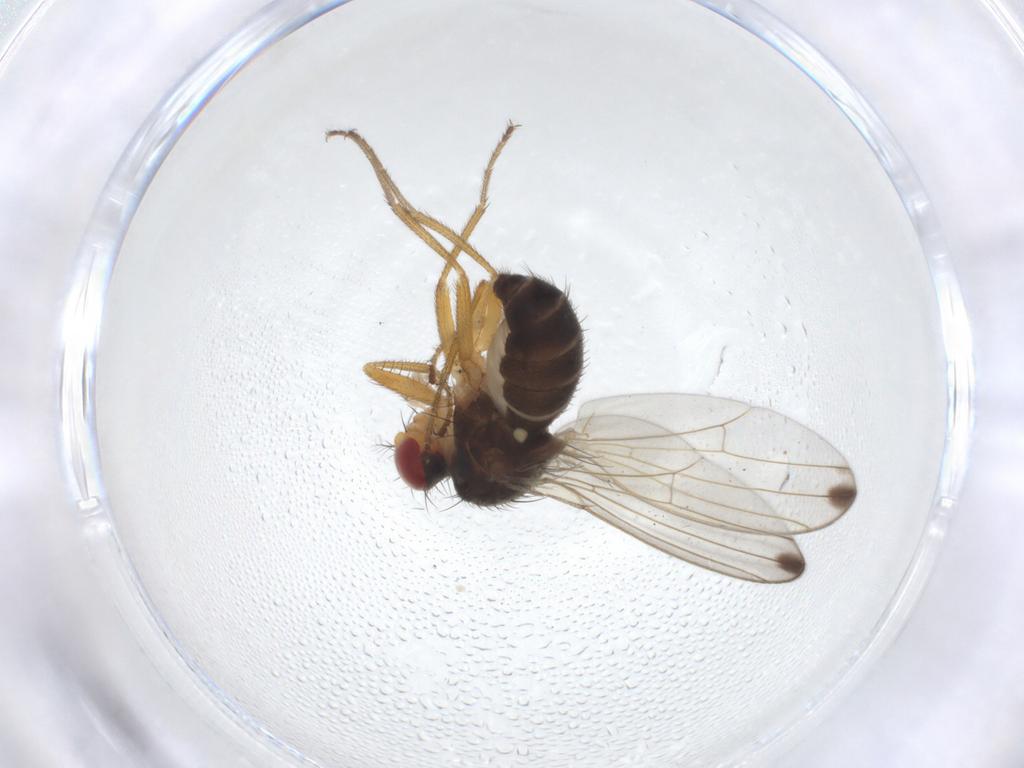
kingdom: Animalia
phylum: Arthropoda
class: Insecta
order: Diptera
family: Drosophilidae
